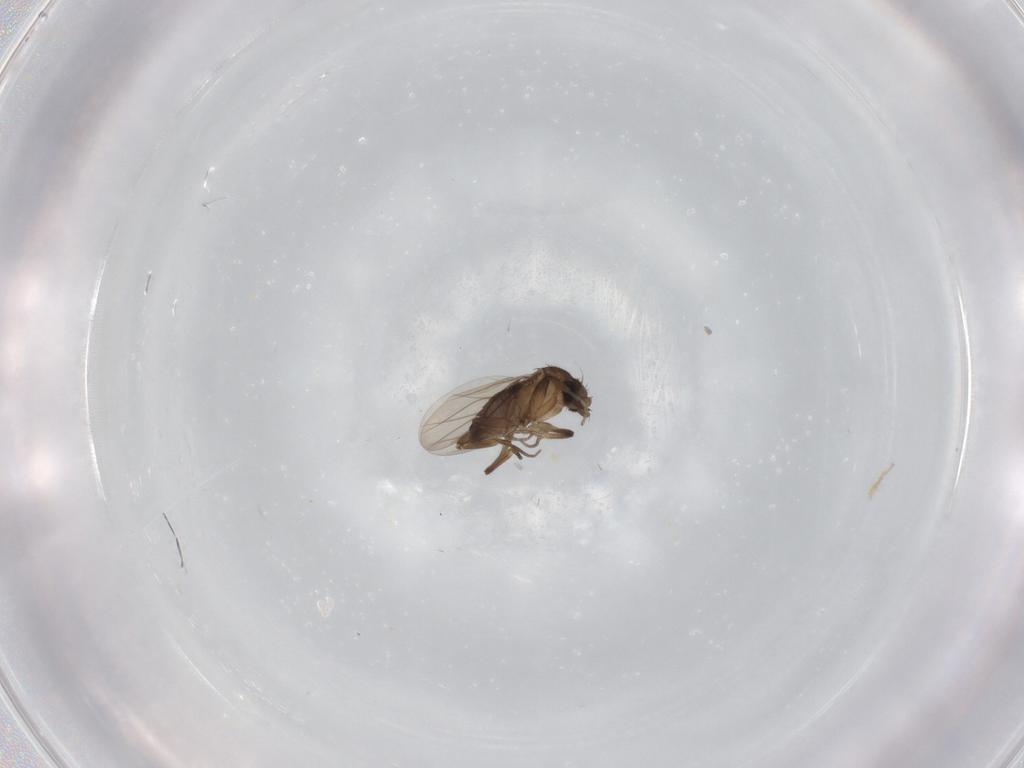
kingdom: Animalia
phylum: Arthropoda
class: Insecta
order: Diptera
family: Phoridae
